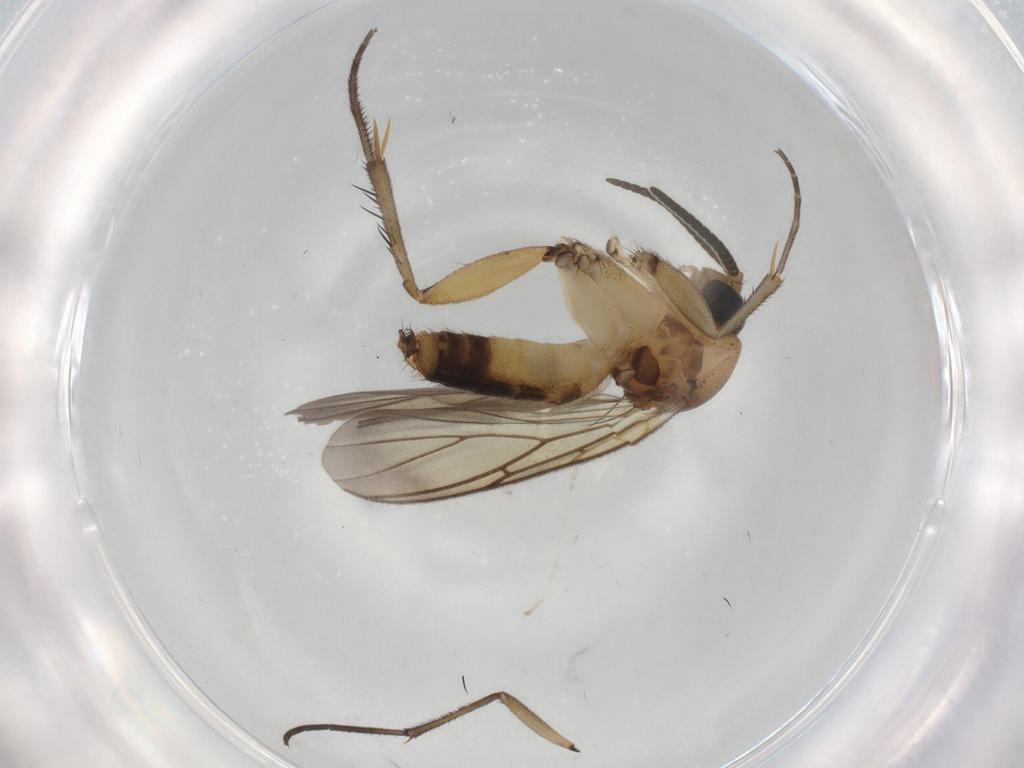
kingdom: Animalia
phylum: Arthropoda
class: Insecta
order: Diptera
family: Mycetophilidae
